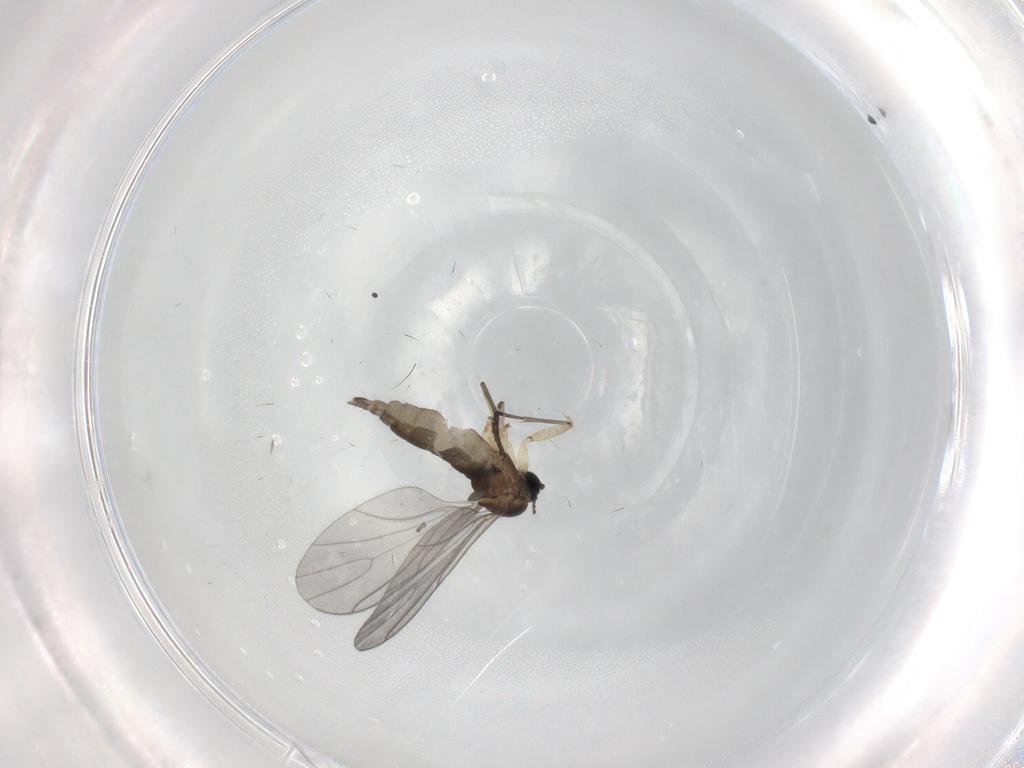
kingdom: Animalia
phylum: Arthropoda
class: Insecta
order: Diptera
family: Sciaridae
